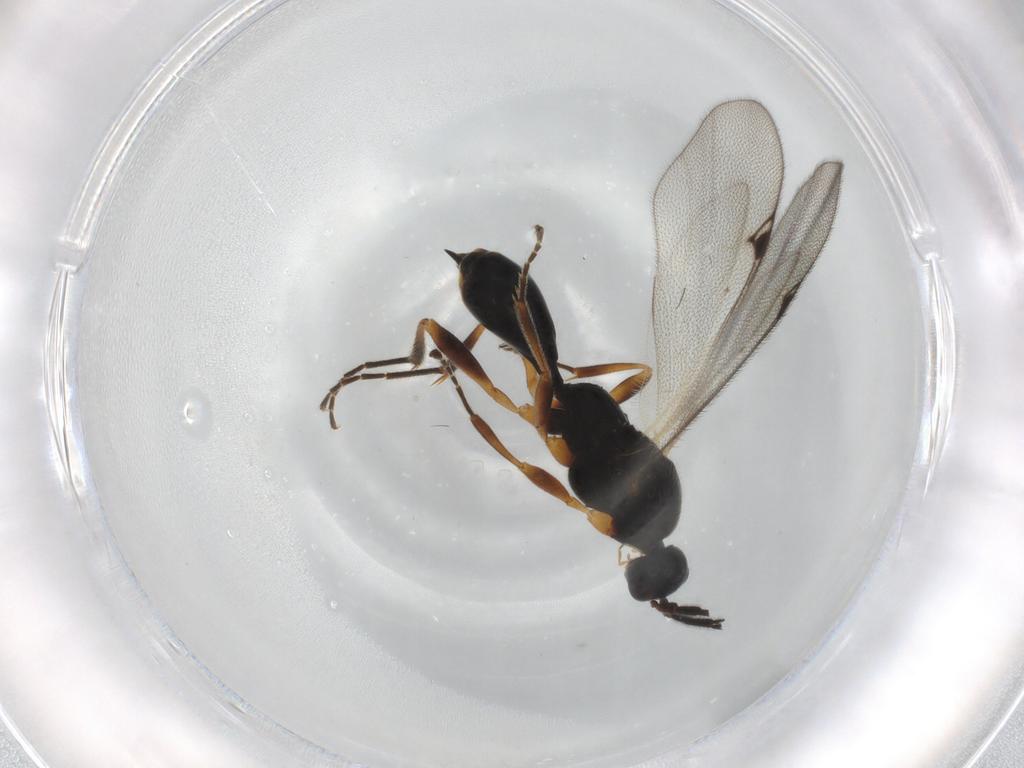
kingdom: Animalia
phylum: Arthropoda
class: Insecta
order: Hymenoptera
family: Proctotrupidae
